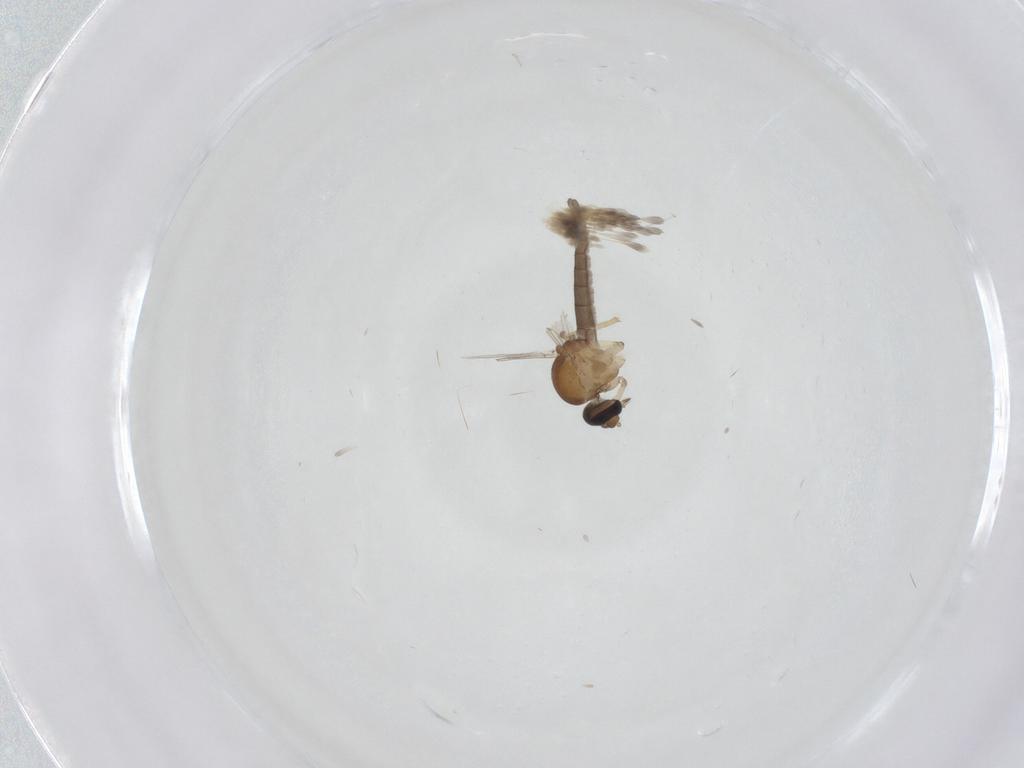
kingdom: Animalia
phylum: Arthropoda
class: Insecta
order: Diptera
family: Ceratopogonidae
